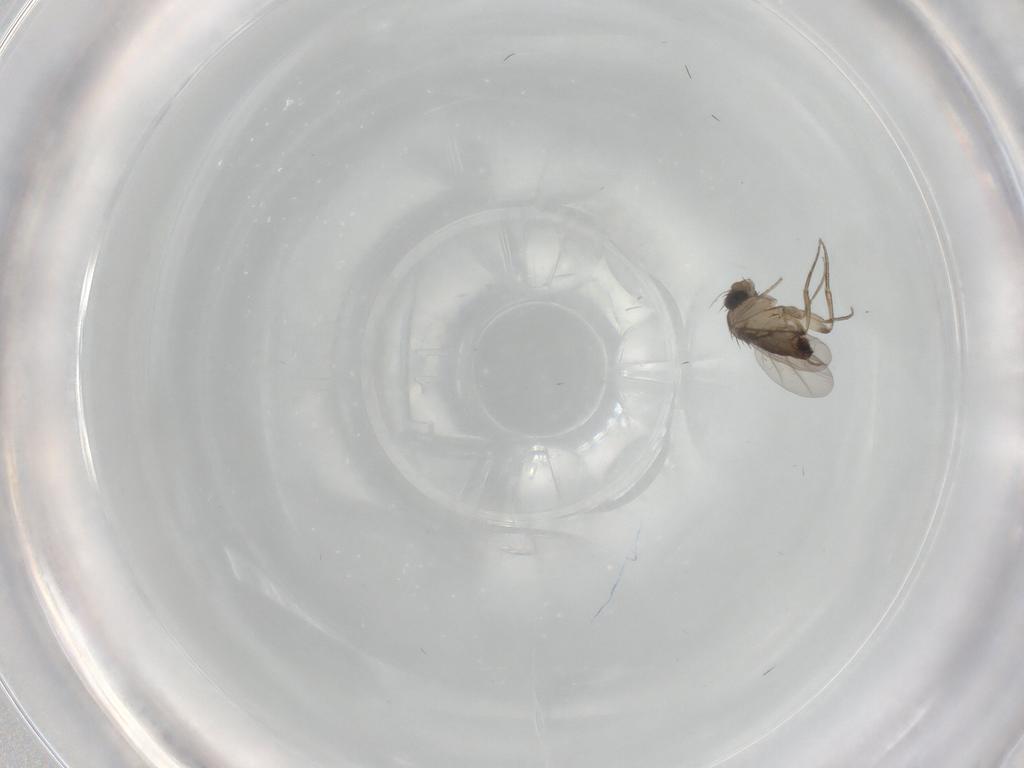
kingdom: Animalia
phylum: Arthropoda
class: Insecta
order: Diptera
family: Phoridae
